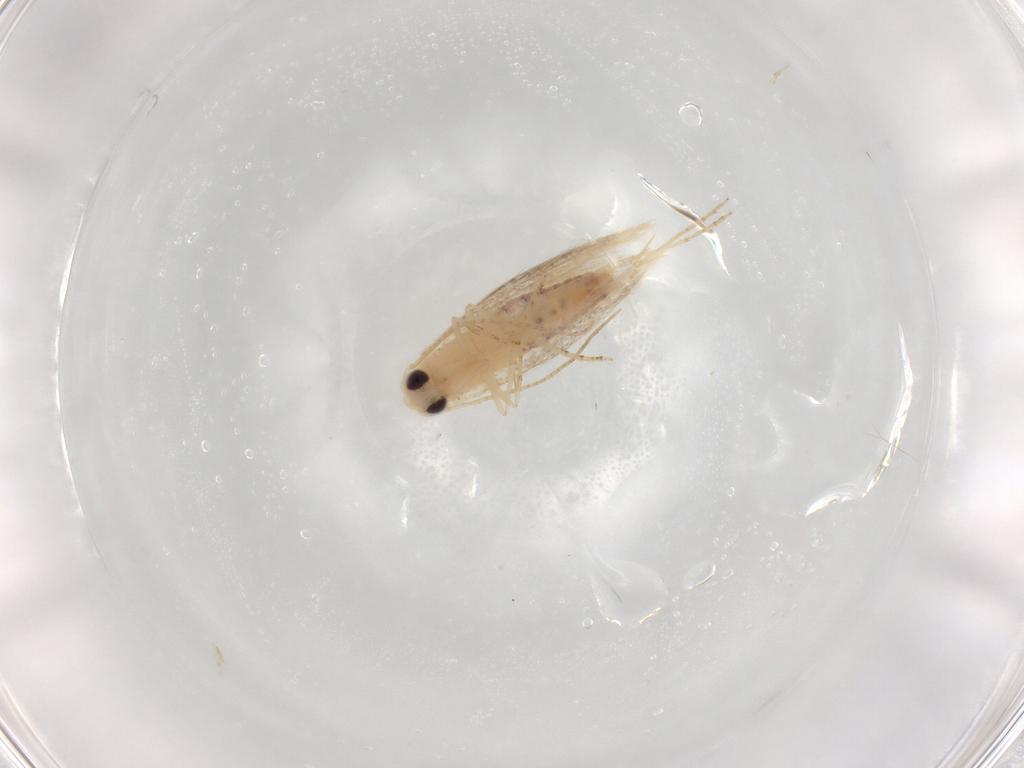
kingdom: Animalia
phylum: Arthropoda
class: Insecta
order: Lepidoptera
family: Bucculatricidae
